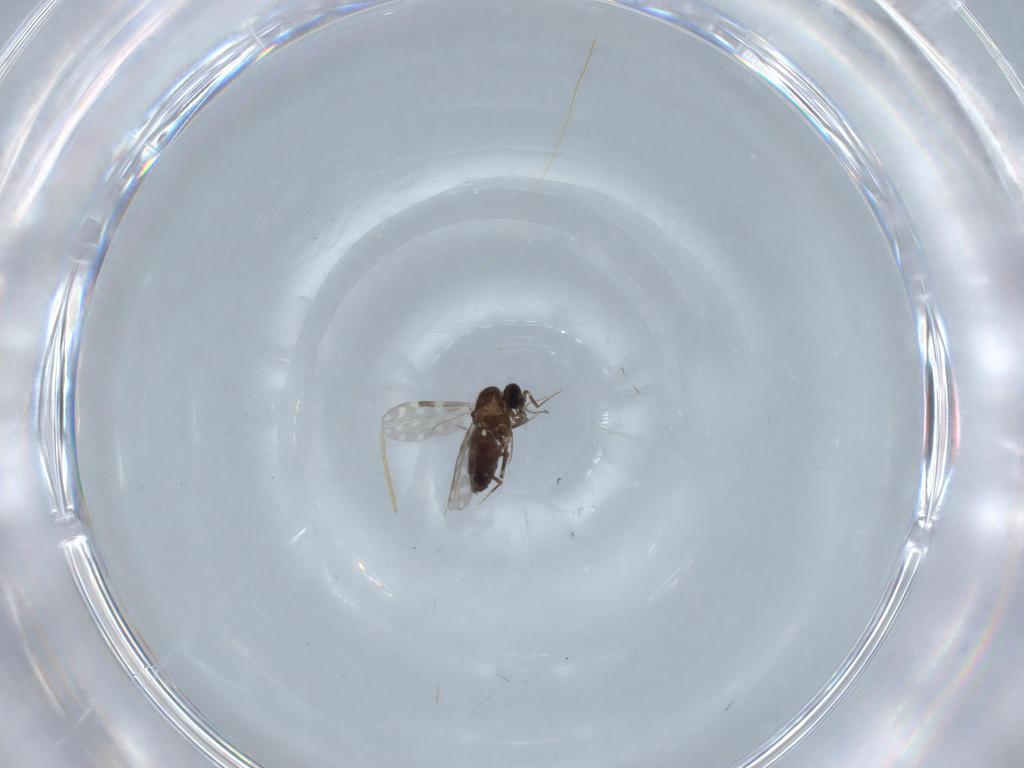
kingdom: Animalia
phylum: Arthropoda
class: Insecta
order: Diptera
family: Ceratopogonidae
